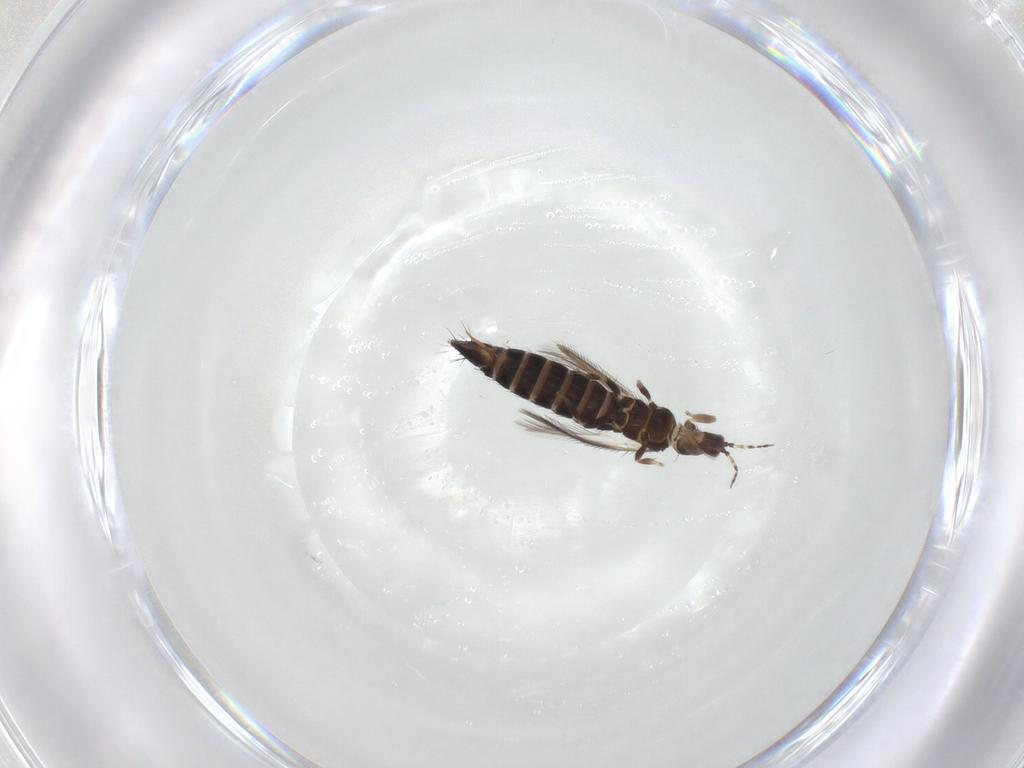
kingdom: Animalia
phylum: Arthropoda
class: Insecta
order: Thysanoptera
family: Thripidae
